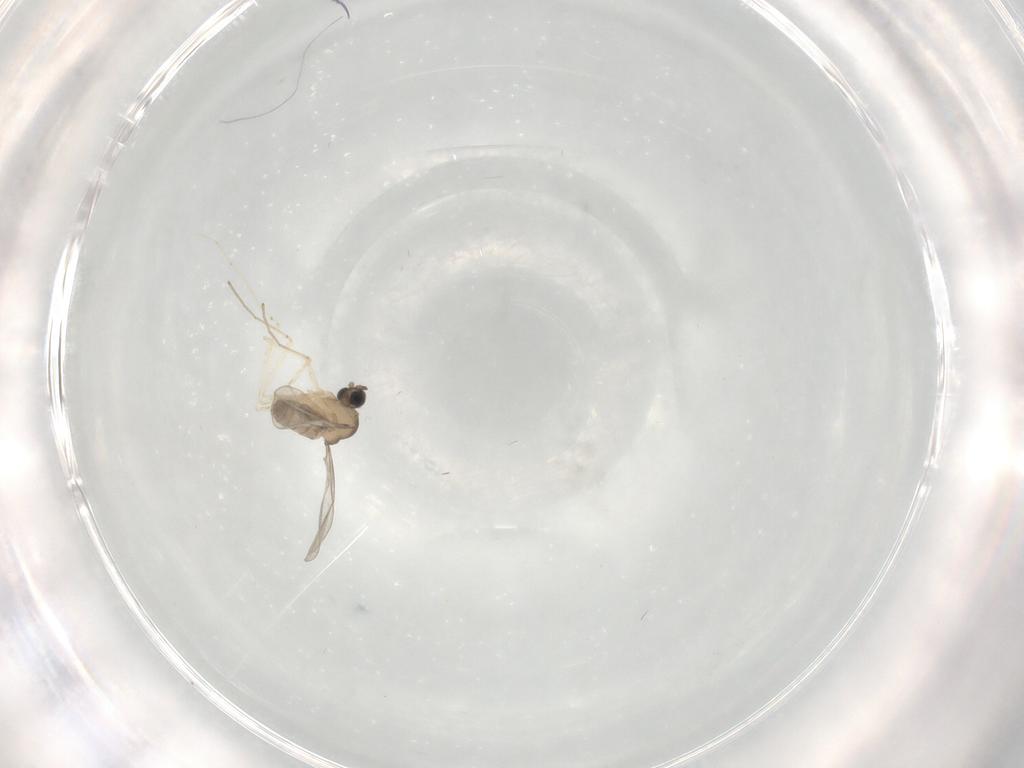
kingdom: Animalia
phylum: Arthropoda
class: Insecta
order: Diptera
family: Cecidomyiidae
